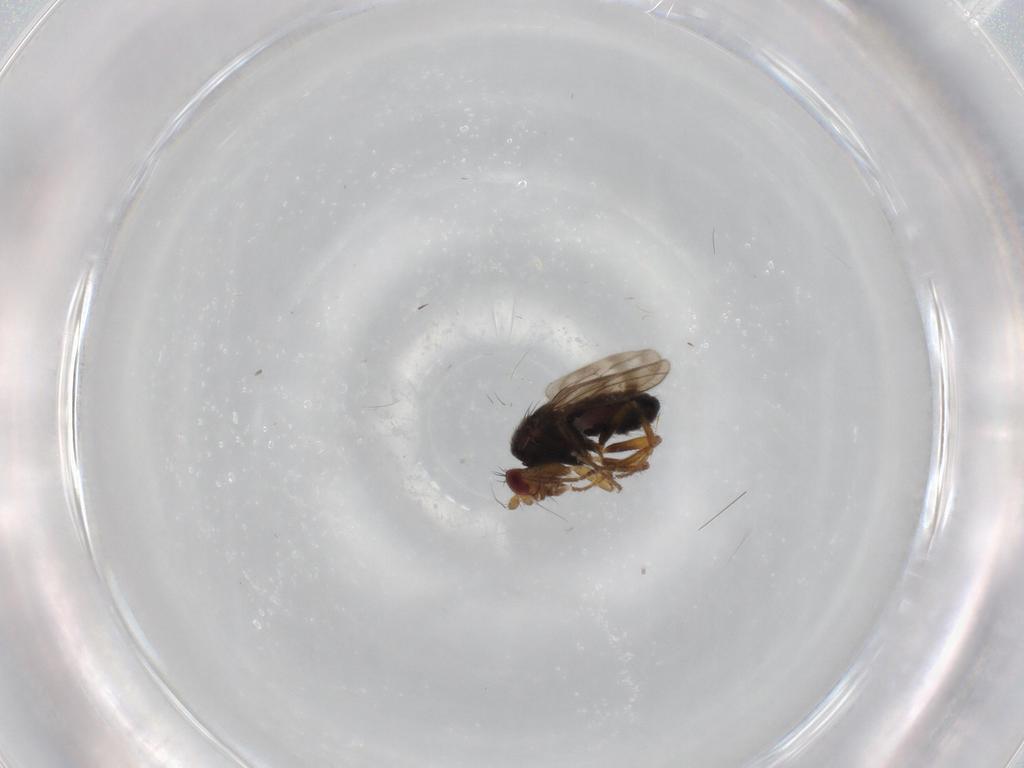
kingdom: Animalia
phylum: Arthropoda
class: Insecta
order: Diptera
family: Sphaeroceridae
